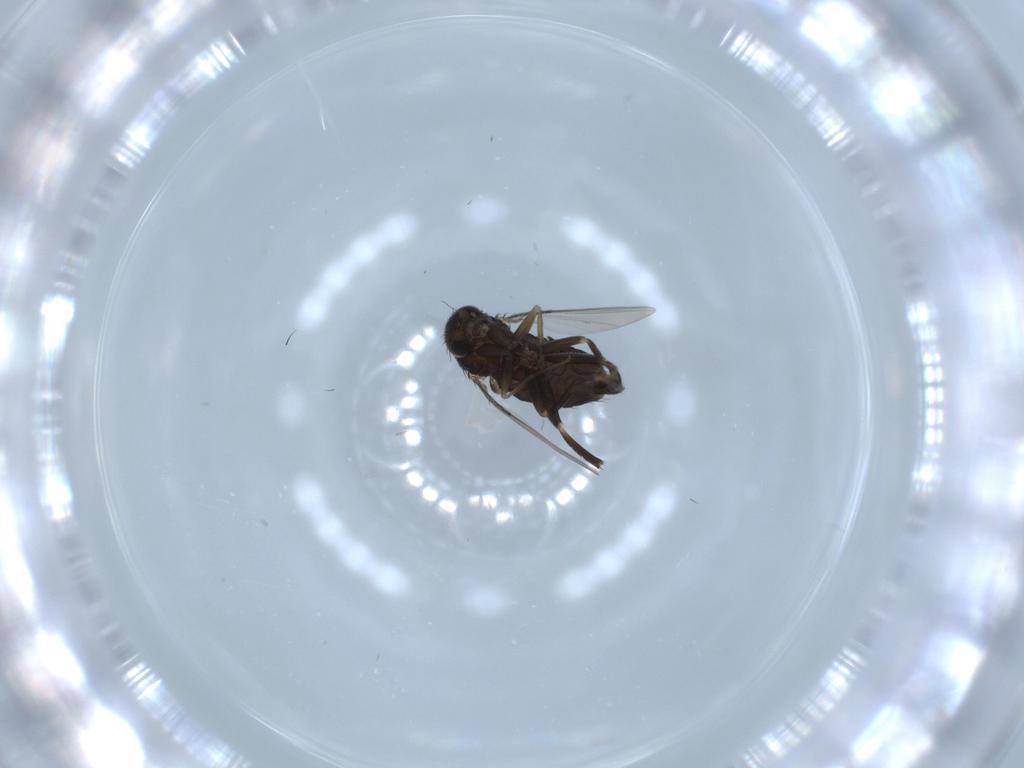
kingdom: Animalia
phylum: Arthropoda
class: Insecta
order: Diptera
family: Phoridae
